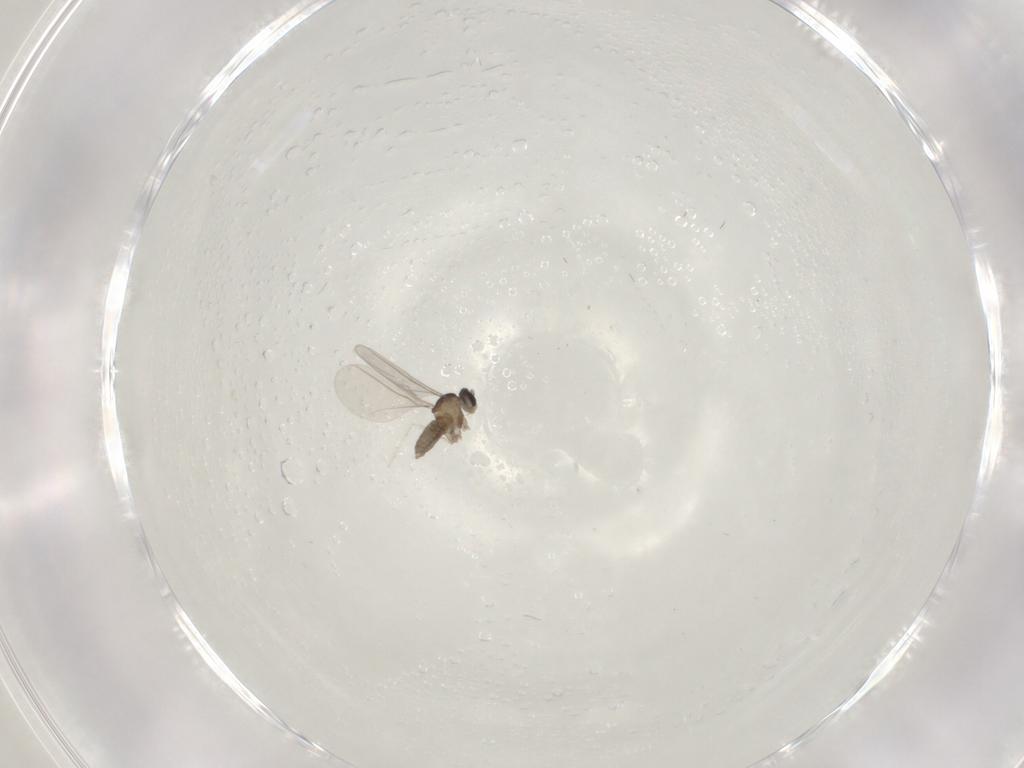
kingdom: Animalia
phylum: Arthropoda
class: Insecta
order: Diptera
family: Cecidomyiidae
